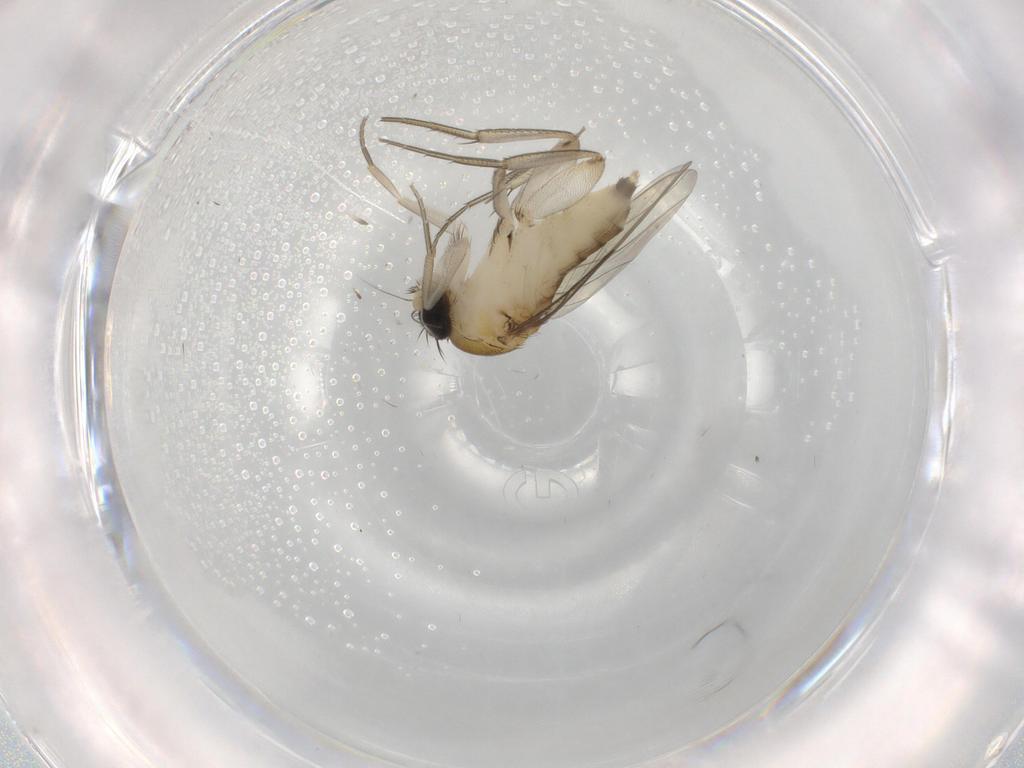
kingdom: Animalia
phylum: Arthropoda
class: Insecta
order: Diptera
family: Phoridae
